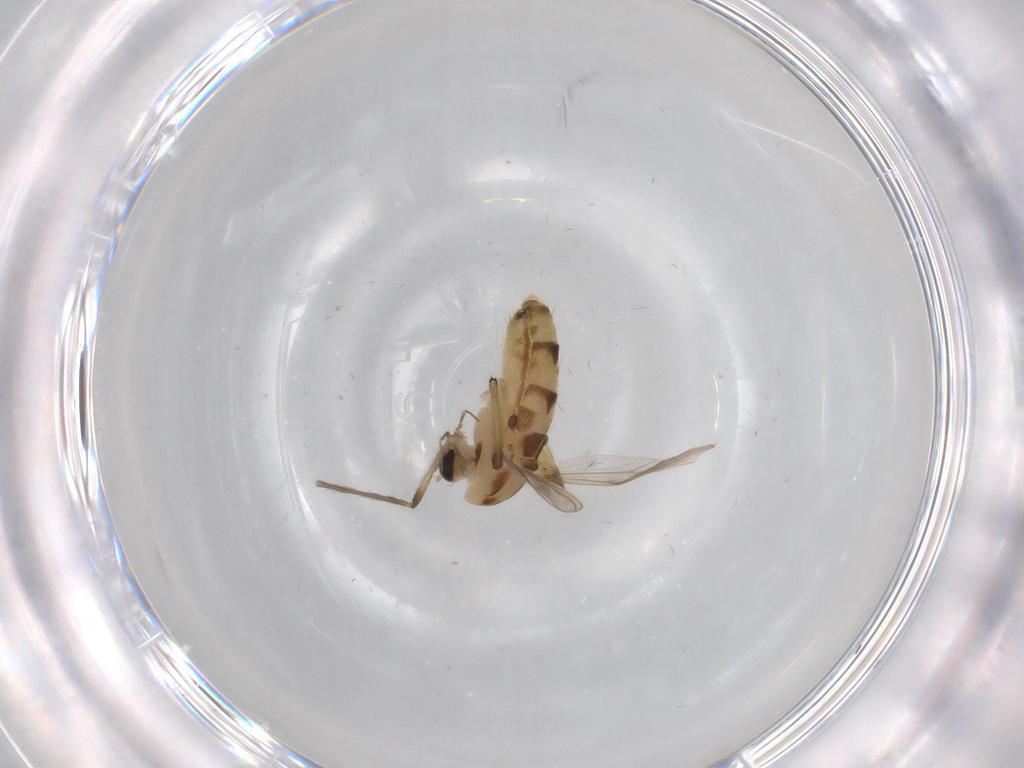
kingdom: Animalia
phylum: Arthropoda
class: Insecta
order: Diptera
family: Chironomidae
